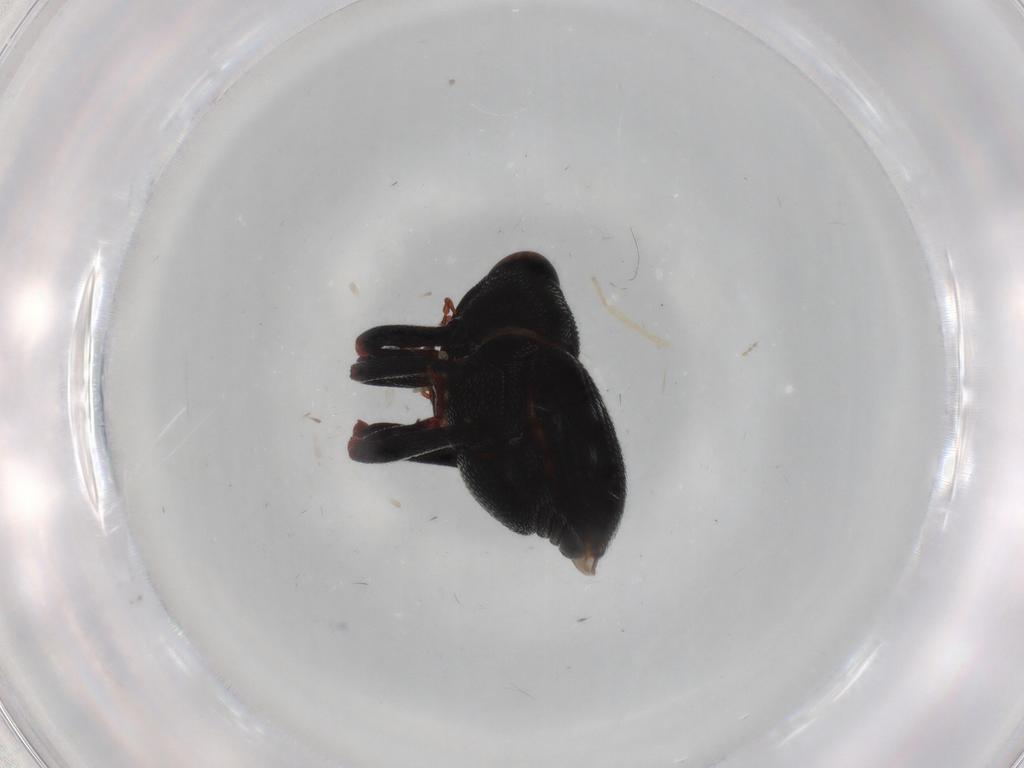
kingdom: Animalia
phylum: Arthropoda
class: Insecta
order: Coleoptera
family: Curculionidae
